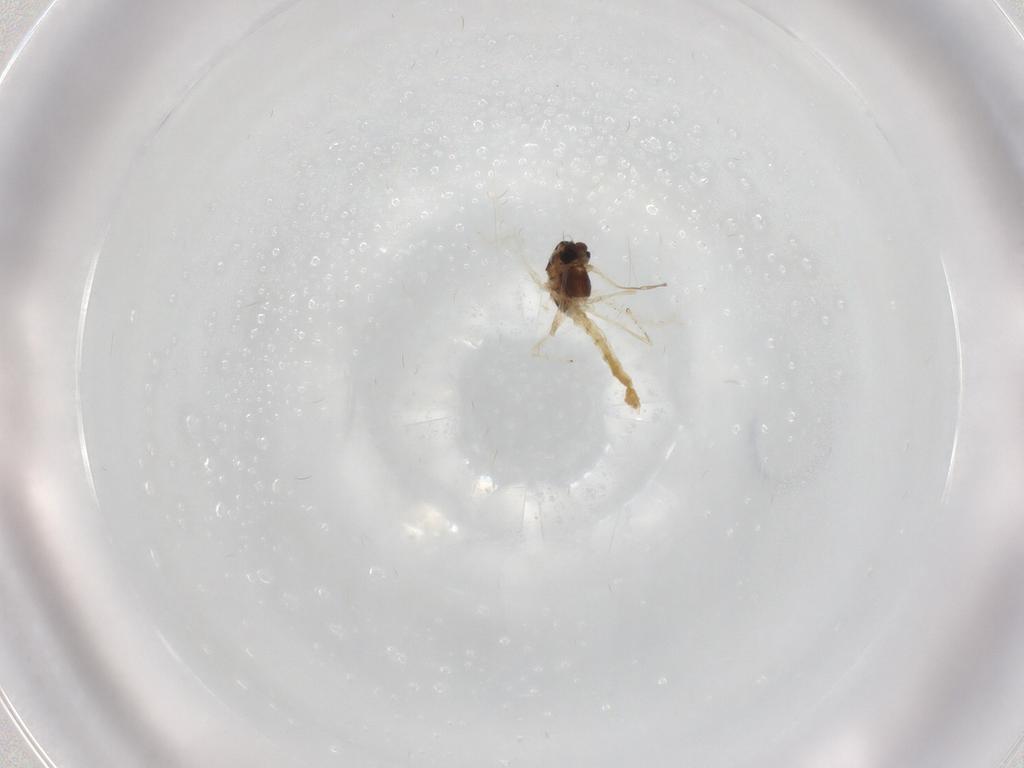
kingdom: Animalia
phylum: Arthropoda
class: Insecta
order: Diptera
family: Chironomidae
